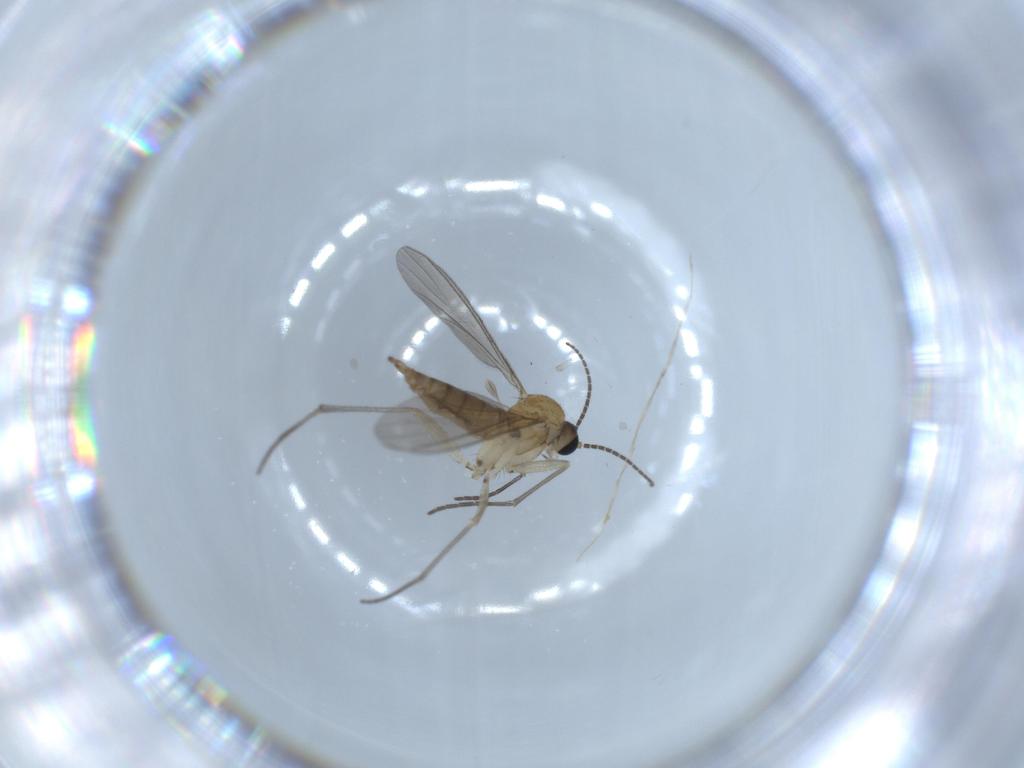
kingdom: Animalia
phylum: Arthropoda
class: Insecta
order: Diptera
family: Sciaridae
